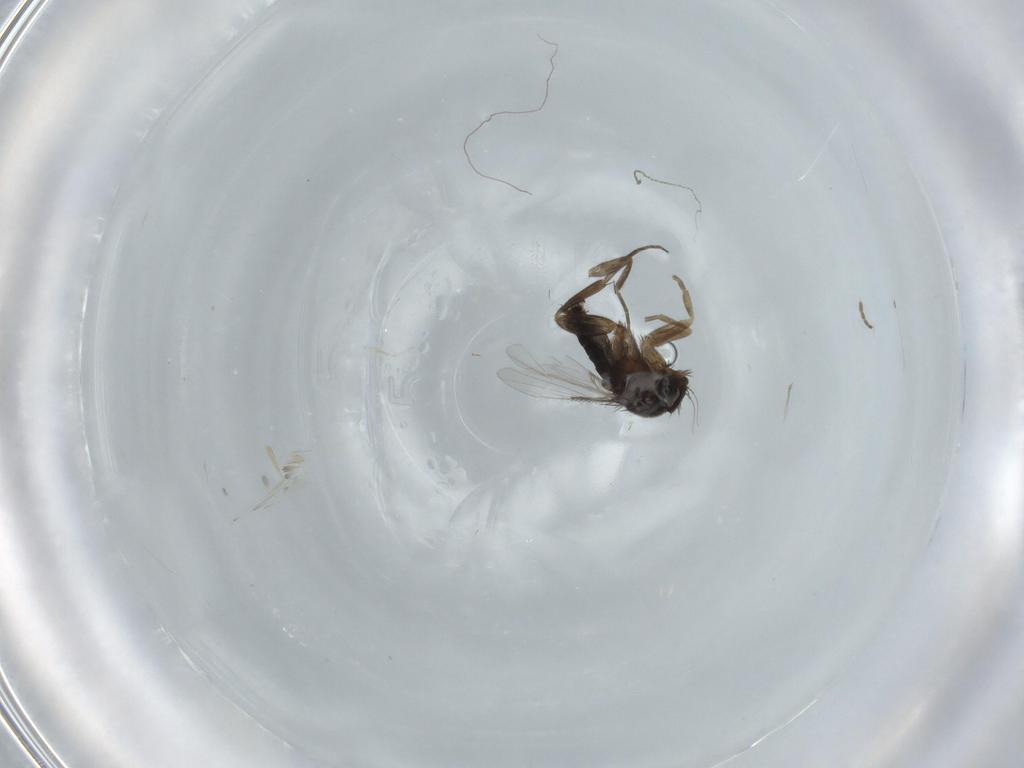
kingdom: Animalia
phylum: Arthropoda
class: Insecta
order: Diptera
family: Phoridae
